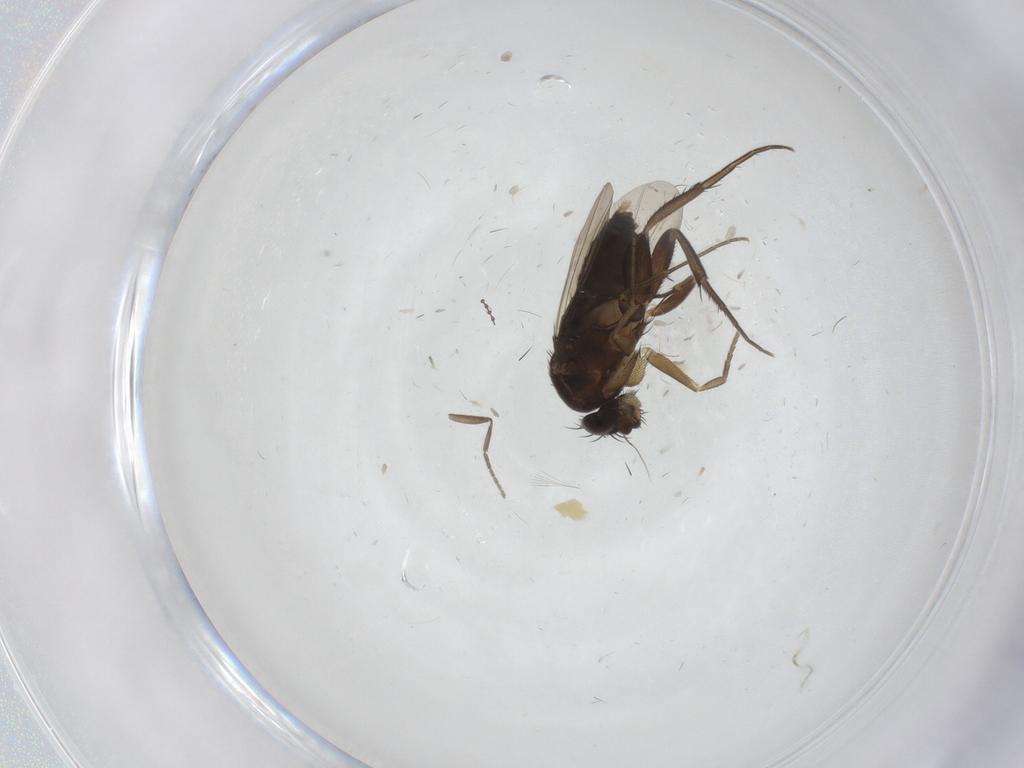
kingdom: Animalia
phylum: Arthropoda
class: Insecta
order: Diptera
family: Phoridae
